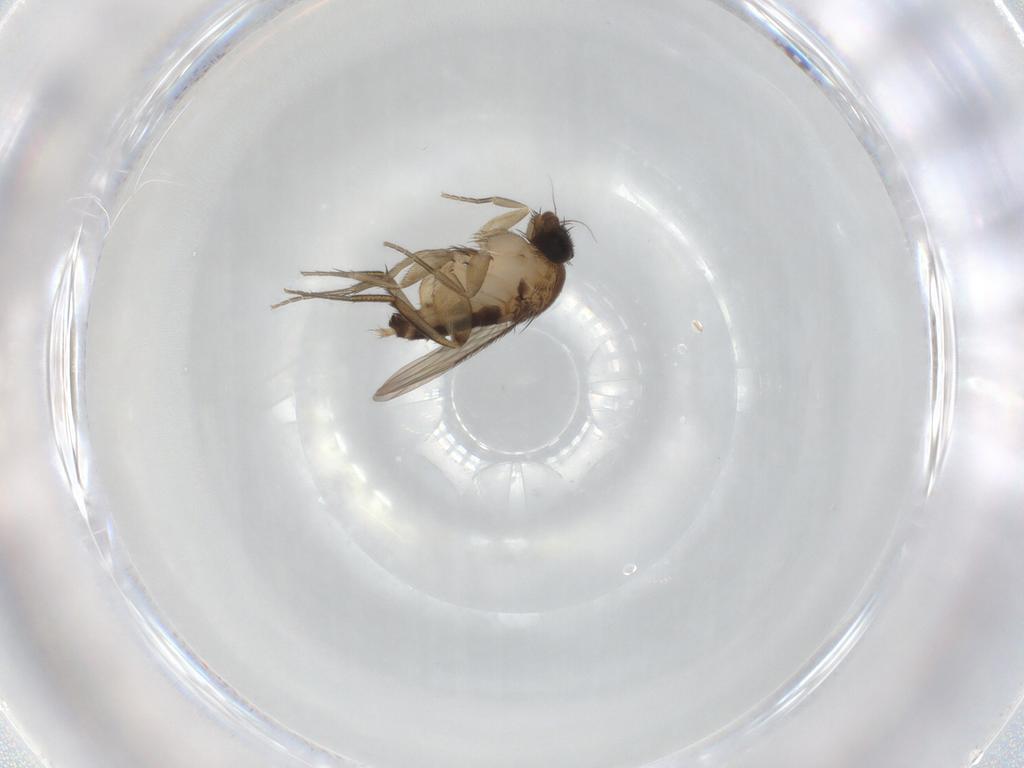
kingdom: Animalia
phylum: Arthropoda
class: Insecta
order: Diptera
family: Phoridae
